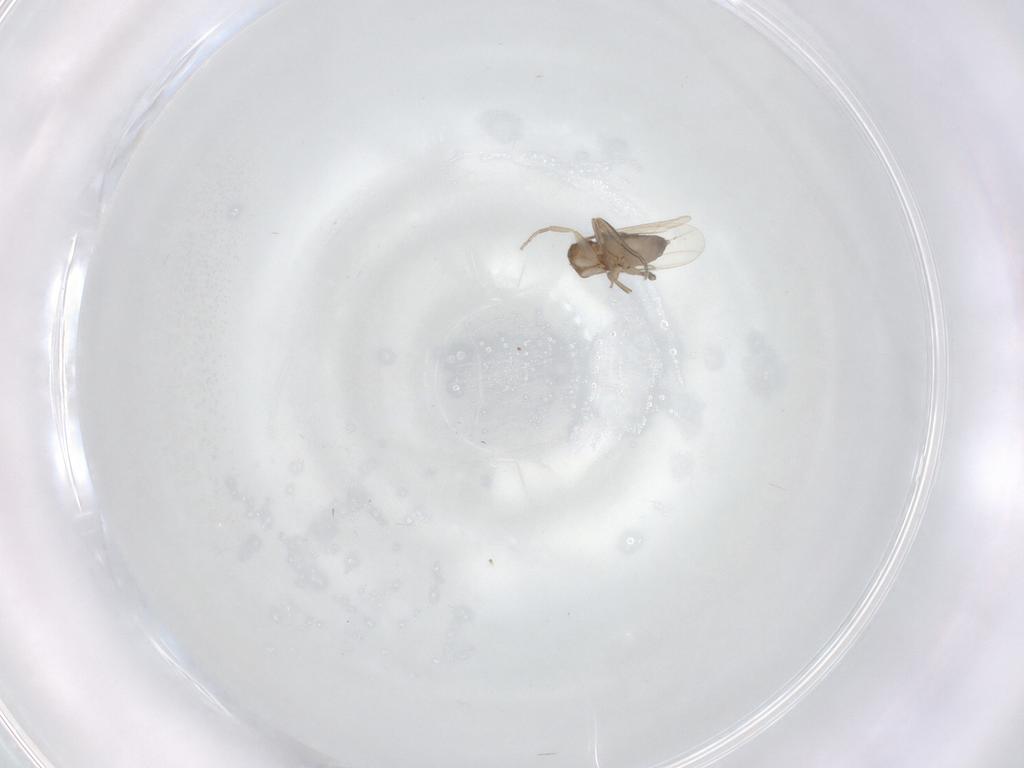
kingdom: Animalia
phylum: Arthropoda
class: Insecta
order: Diptera
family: Phoridae
